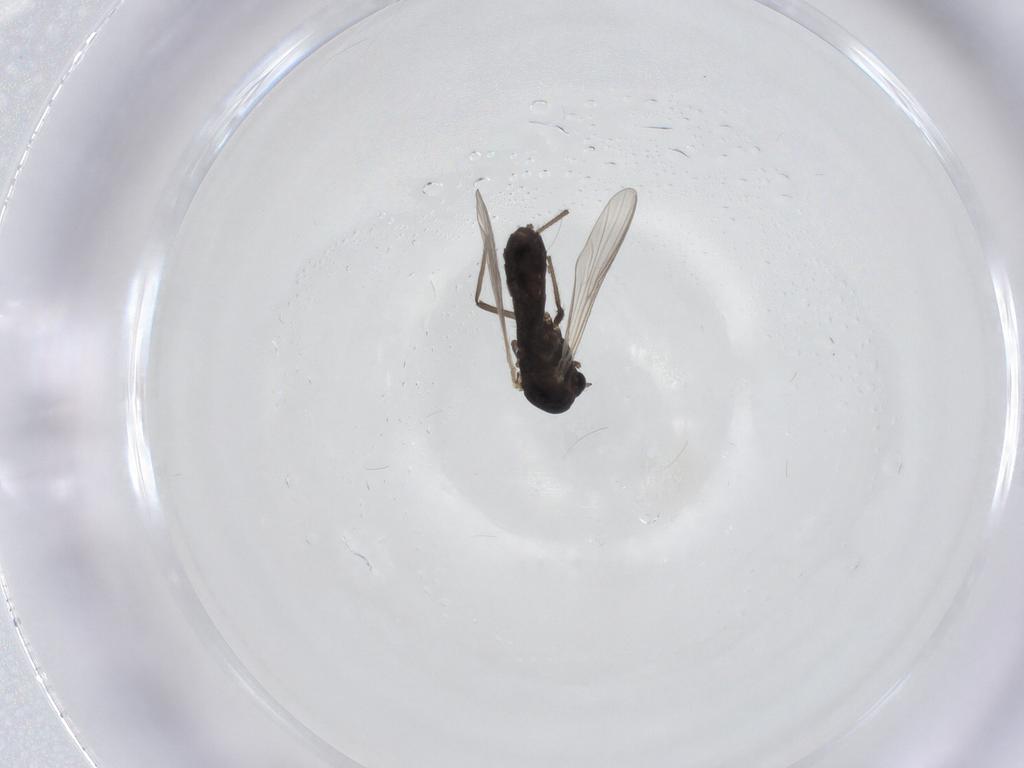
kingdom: Animalia
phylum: Arthropoda
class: Insecta
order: Diptera
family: Chironomidae
